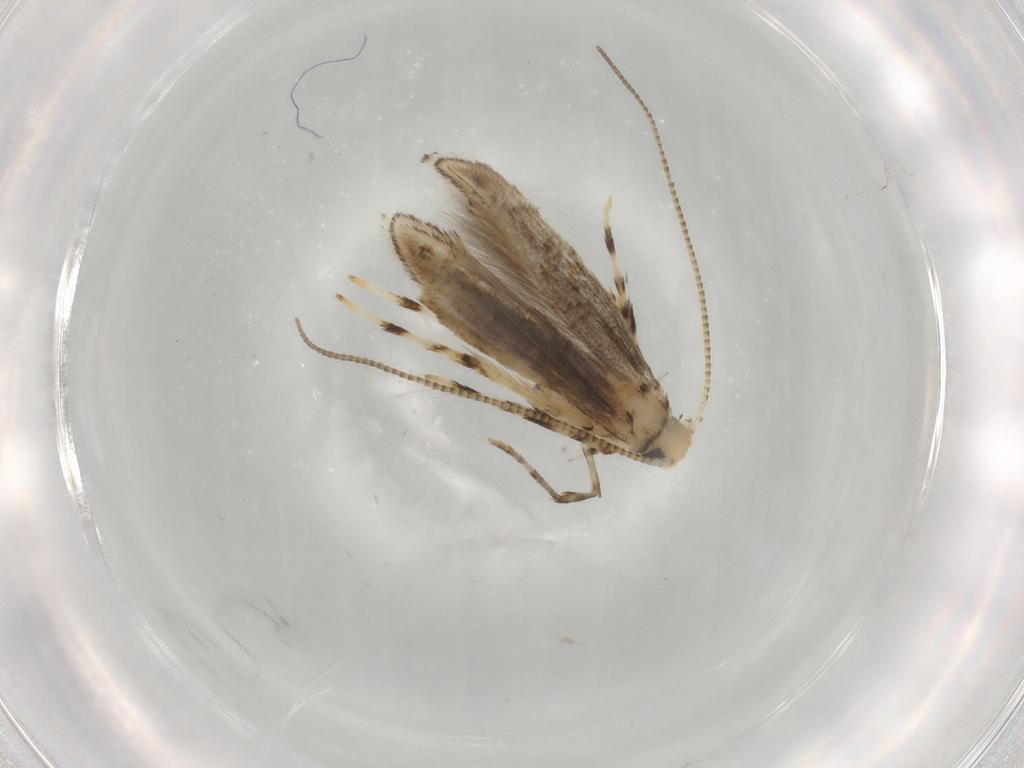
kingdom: Animalia
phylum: Arthropoda
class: Insecta
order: Lepidoptera
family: Gracillariidae
